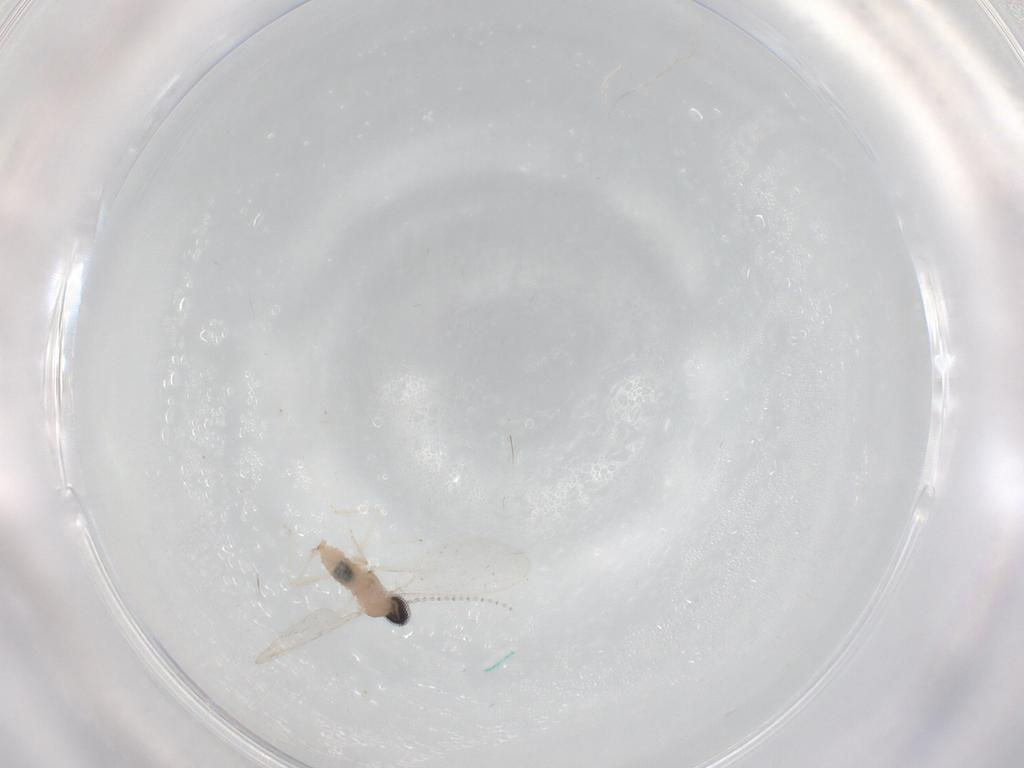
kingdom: Animalia
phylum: Arthropoda
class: Insecta
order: Diptera
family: Cecidomyiidae
